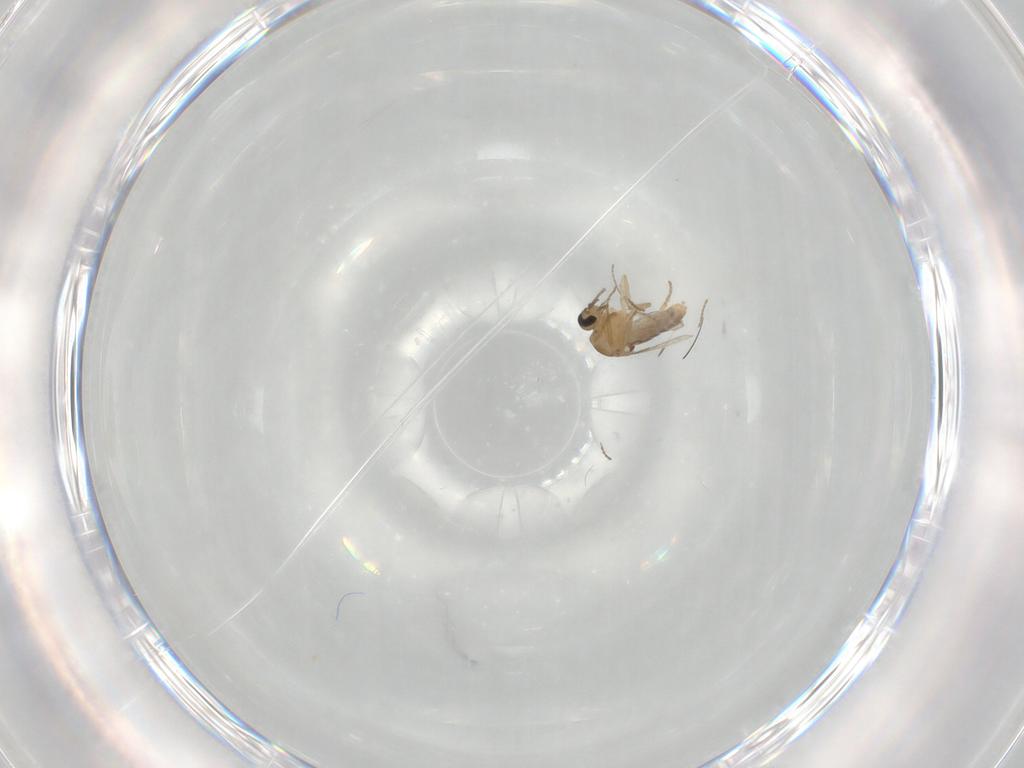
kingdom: Animalia
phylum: Arthropoda
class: Insecta
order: Diptera
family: Ceratopogonidae
